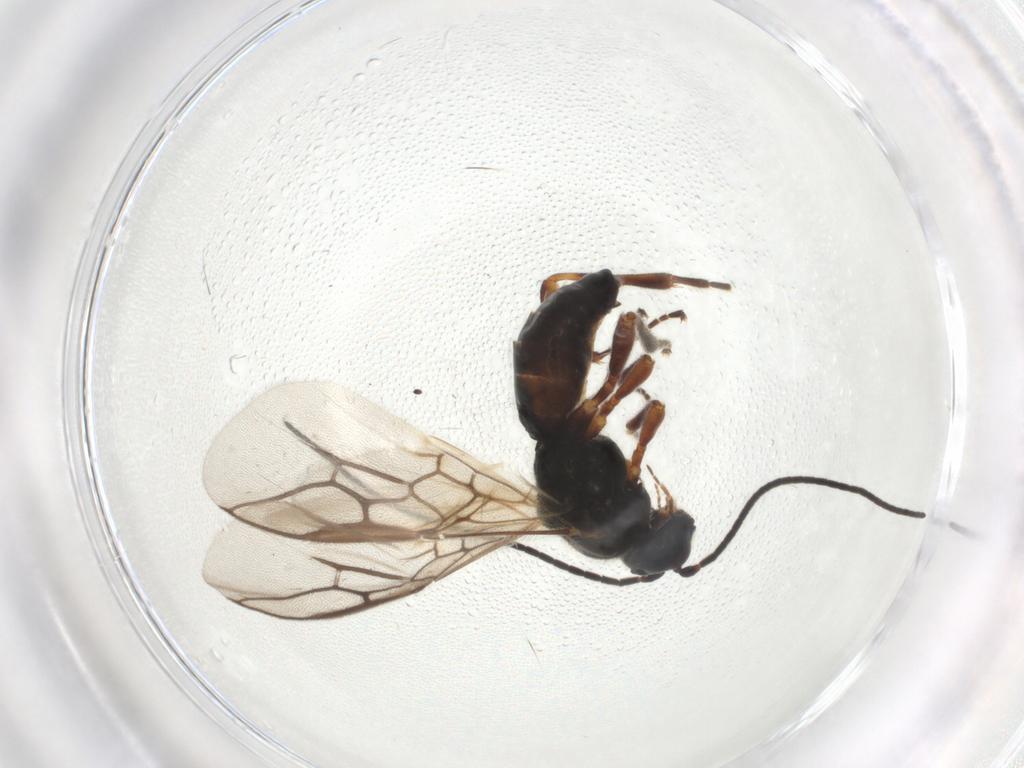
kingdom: Animalia
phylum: Arthropoda
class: Insecta
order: Hymenoptera
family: Braconidae
